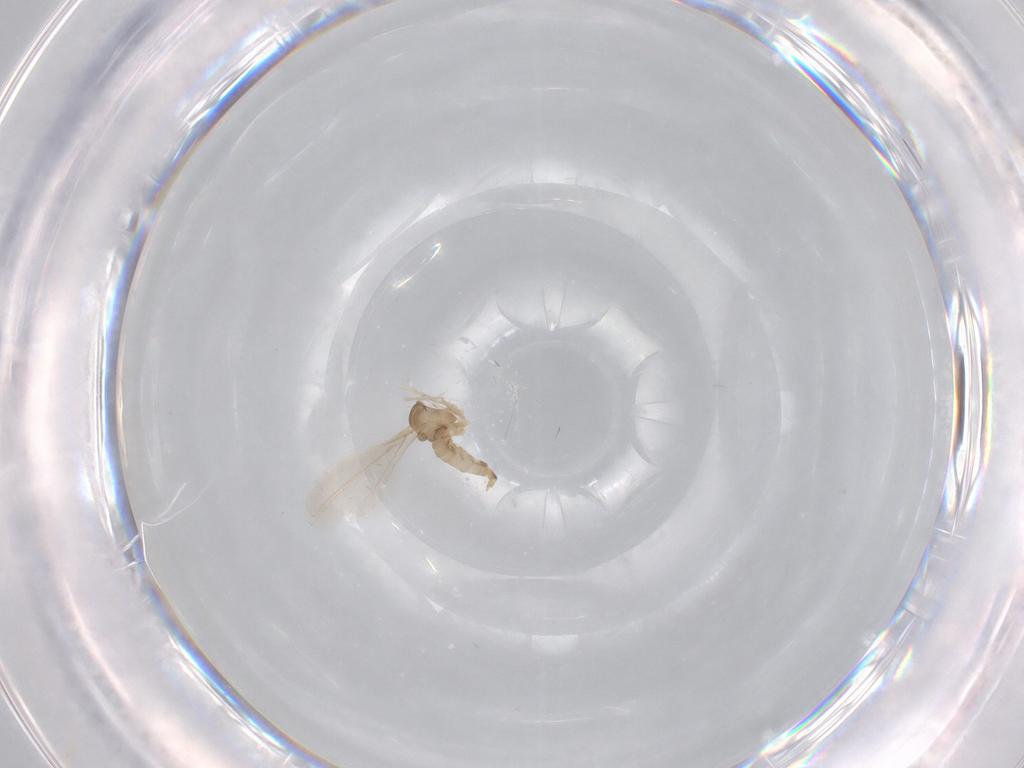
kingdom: Animalia
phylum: Arthropoda
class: Insecta
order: Diptera
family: Cecidomyiidae
